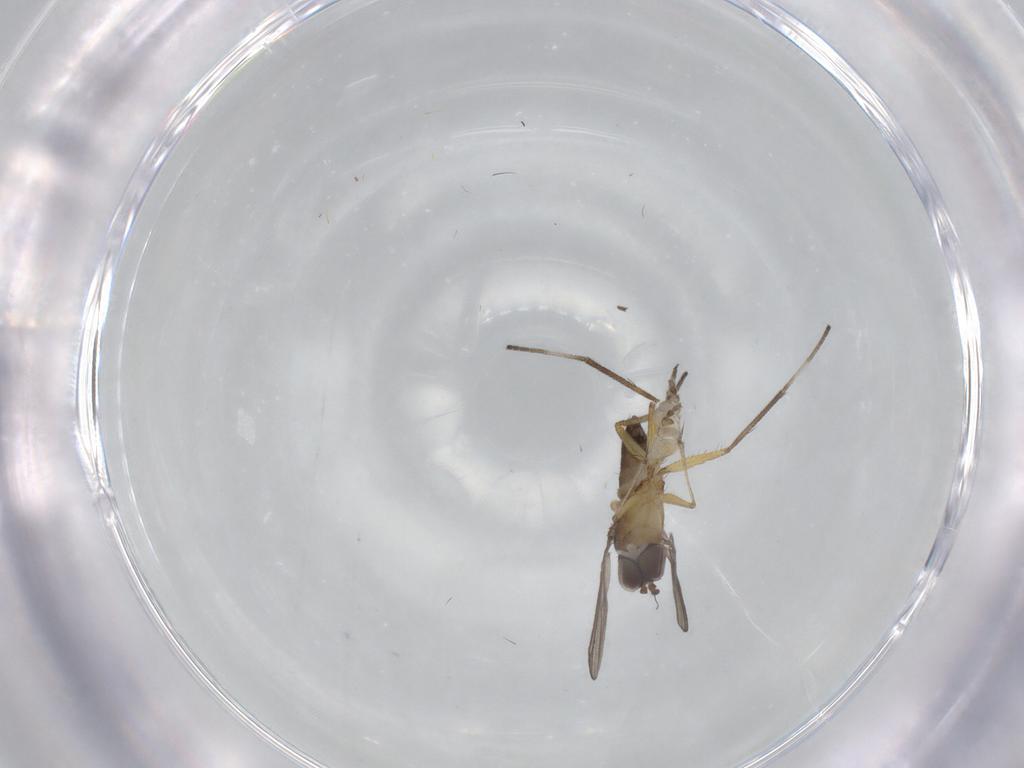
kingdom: Animalia
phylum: Arthropoda
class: Insecta
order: Diptera
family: Dolichopodidae
